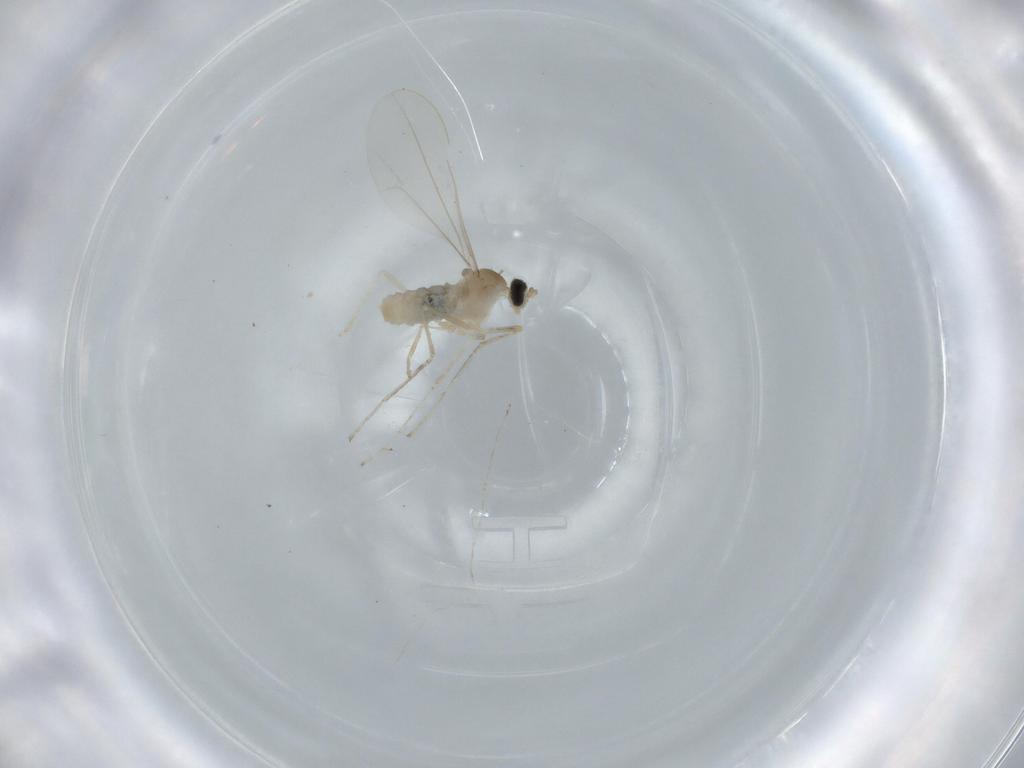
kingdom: Animalia
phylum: Arthropoda
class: Insecta
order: Diptera
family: Cecidomyiidae
